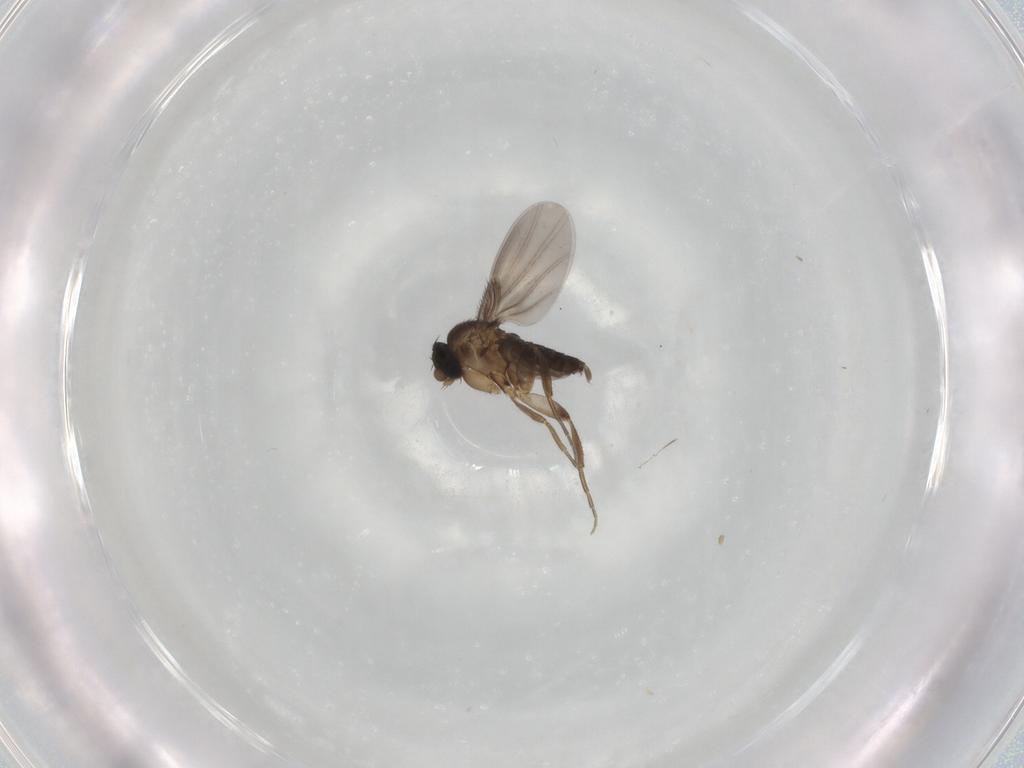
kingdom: Animalia
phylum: Arthropoda
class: Insecta
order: Diptera
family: Phoridae
